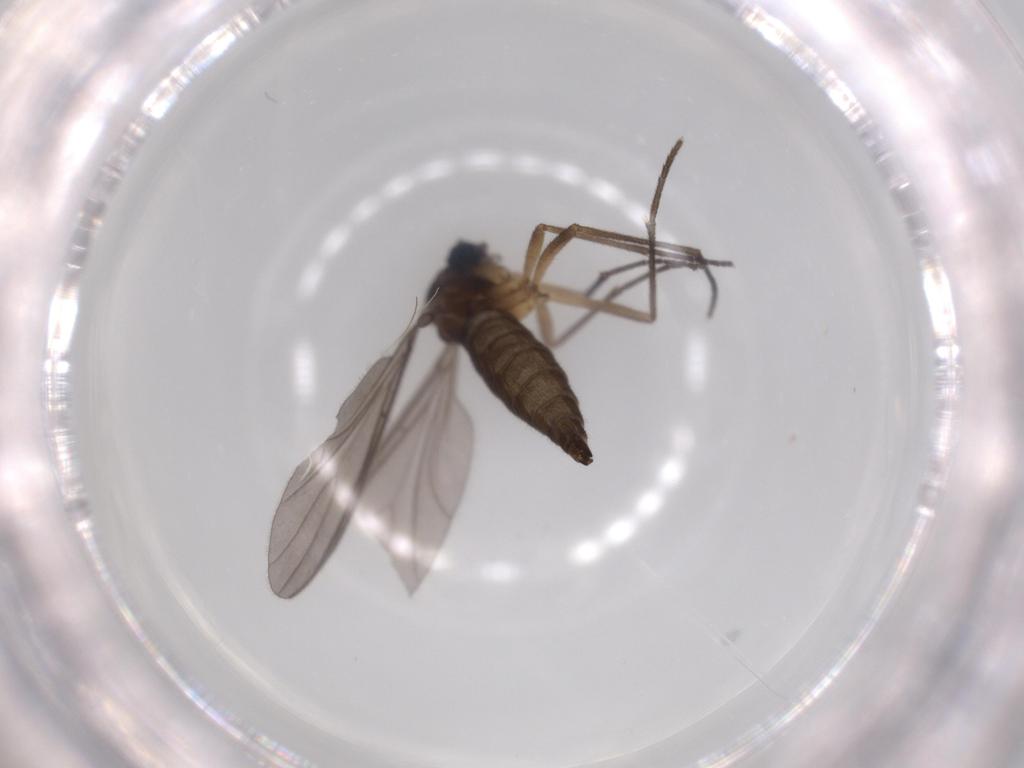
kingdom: Animalia
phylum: Arthropoda
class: Insecta
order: Diptera
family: Sciaridae
